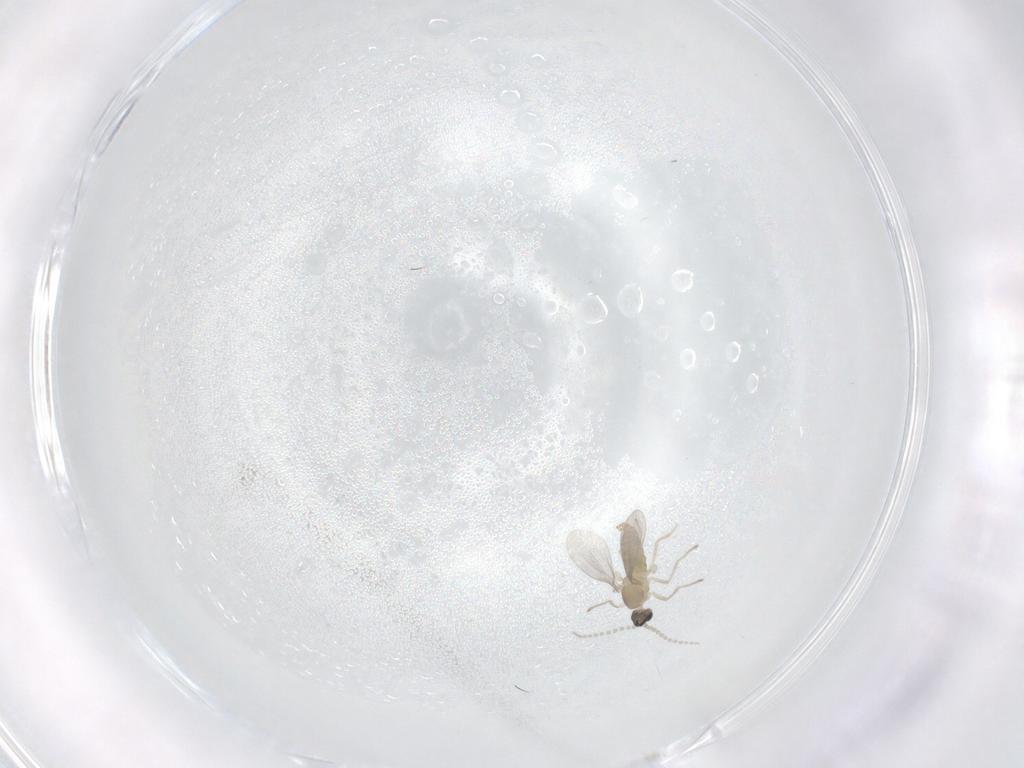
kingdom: Animalia
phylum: Arthropoda
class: Insecta
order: Diptera
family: Cecidomyiidae
